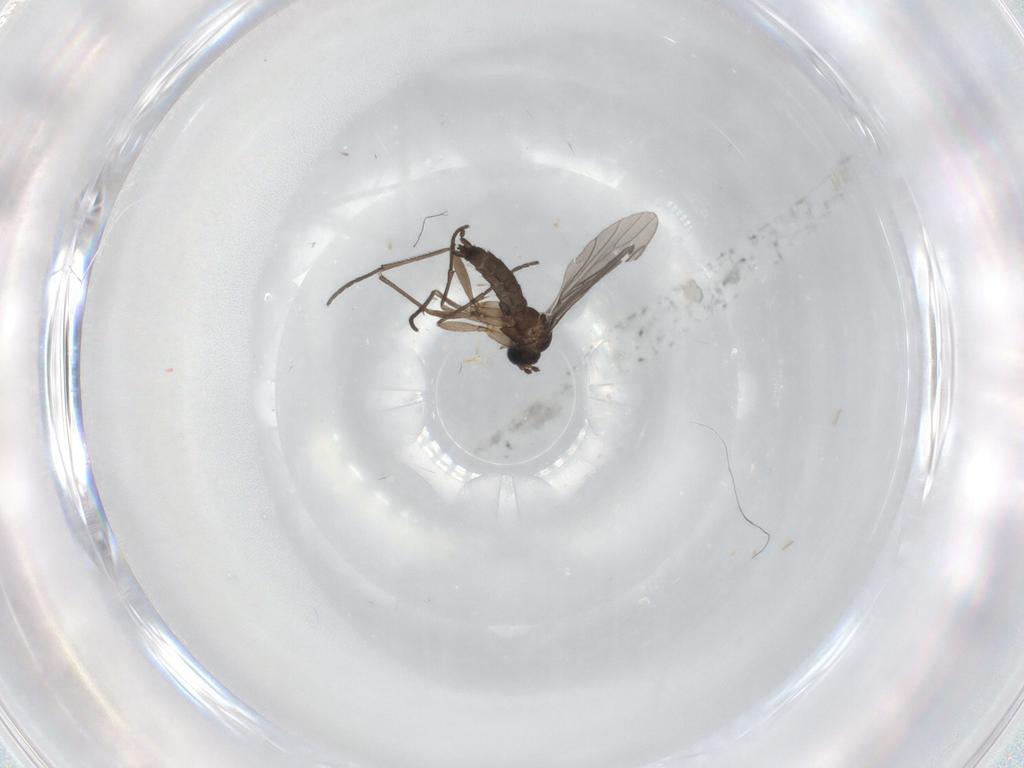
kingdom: Animalia
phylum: Arthropoda
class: Insecta
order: Diptera
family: Sciaridae
